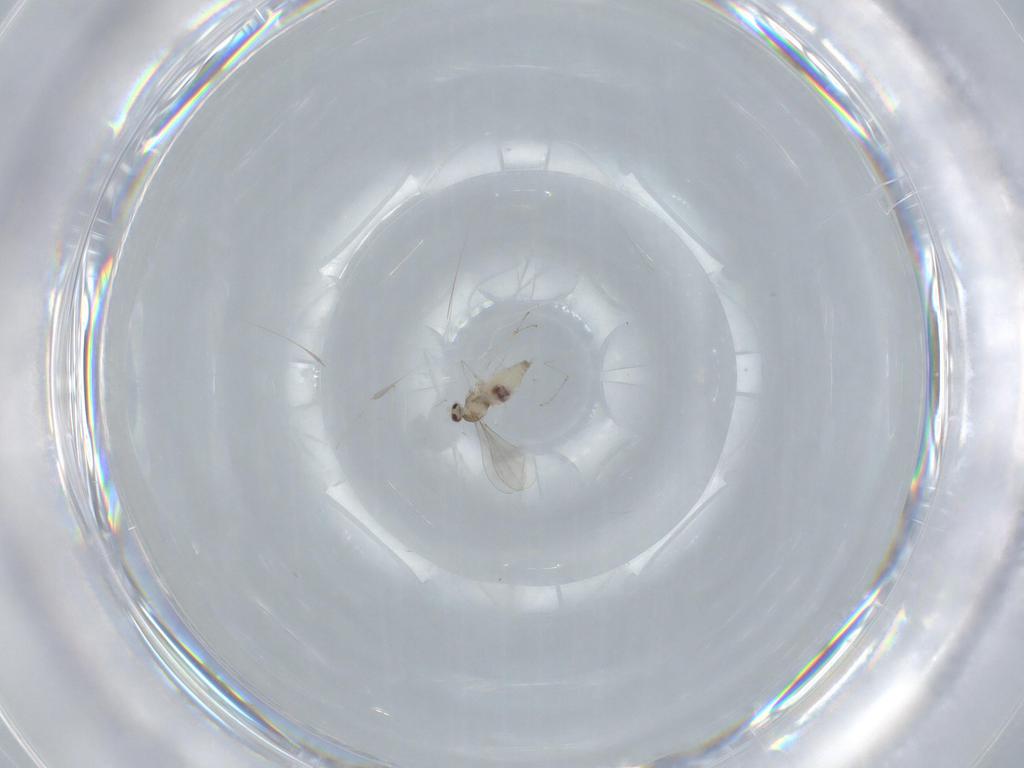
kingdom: Animalia
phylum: Arthropoda
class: Insecta
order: Diptera
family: Cecidomyiidae
